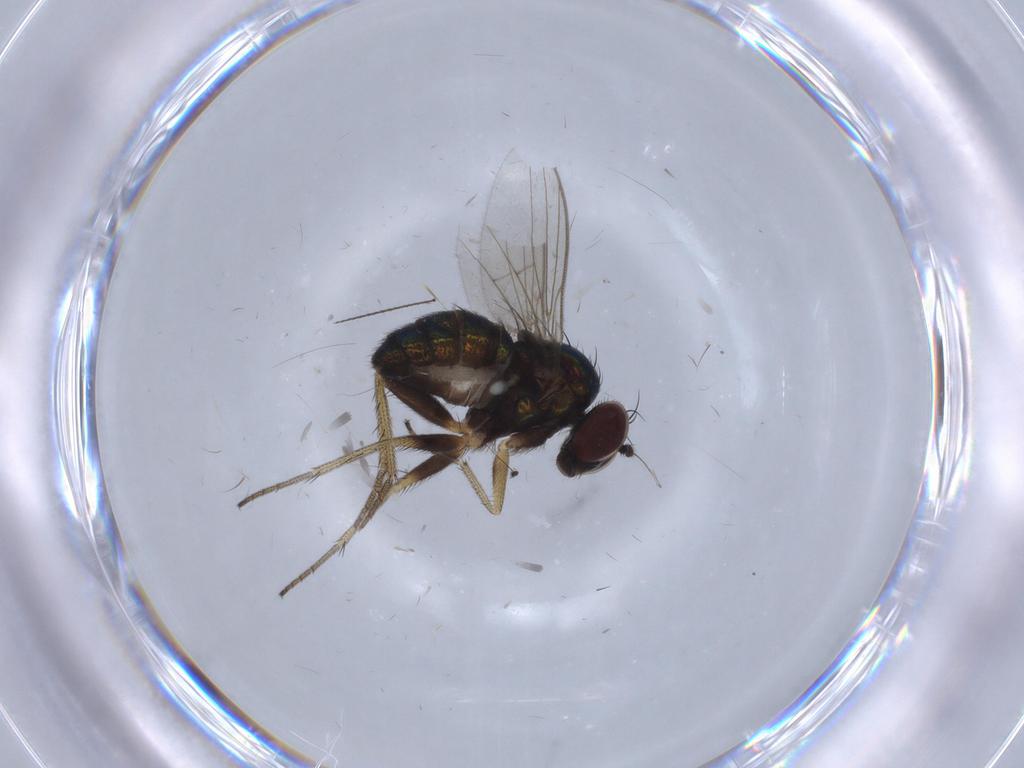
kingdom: Animalia
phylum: Arthropoda
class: Insecta
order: Diptera
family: Dolichopodidae
